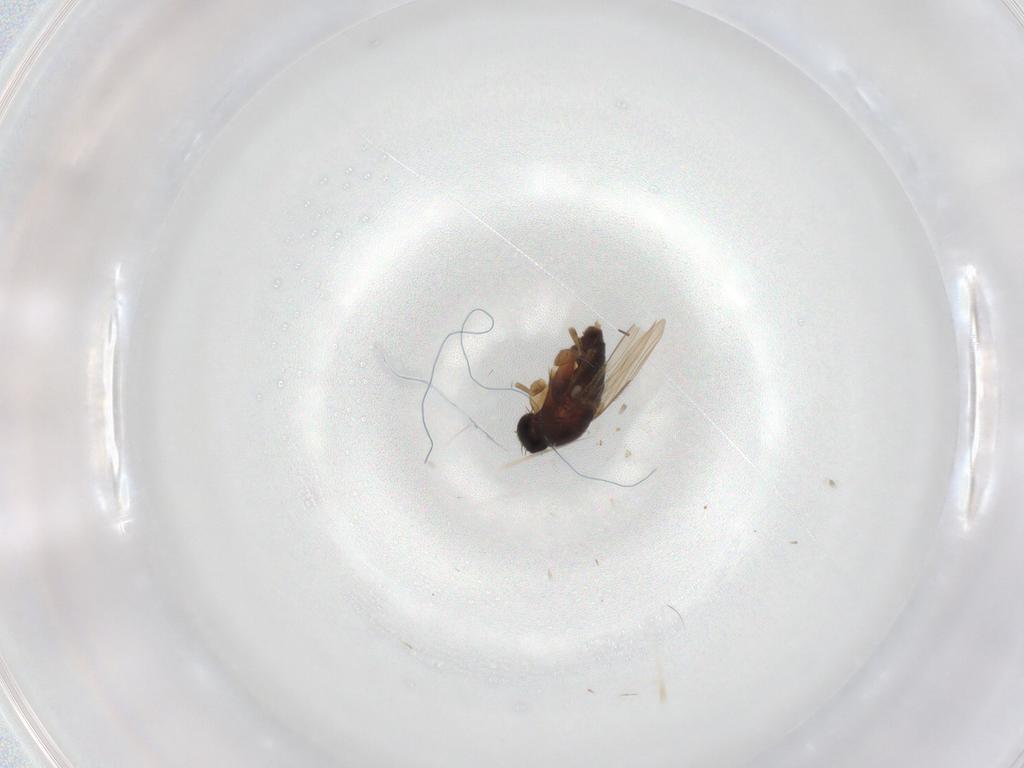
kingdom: Animalia
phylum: Arthropoda
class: Insecta
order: Diptera
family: Phoridae
